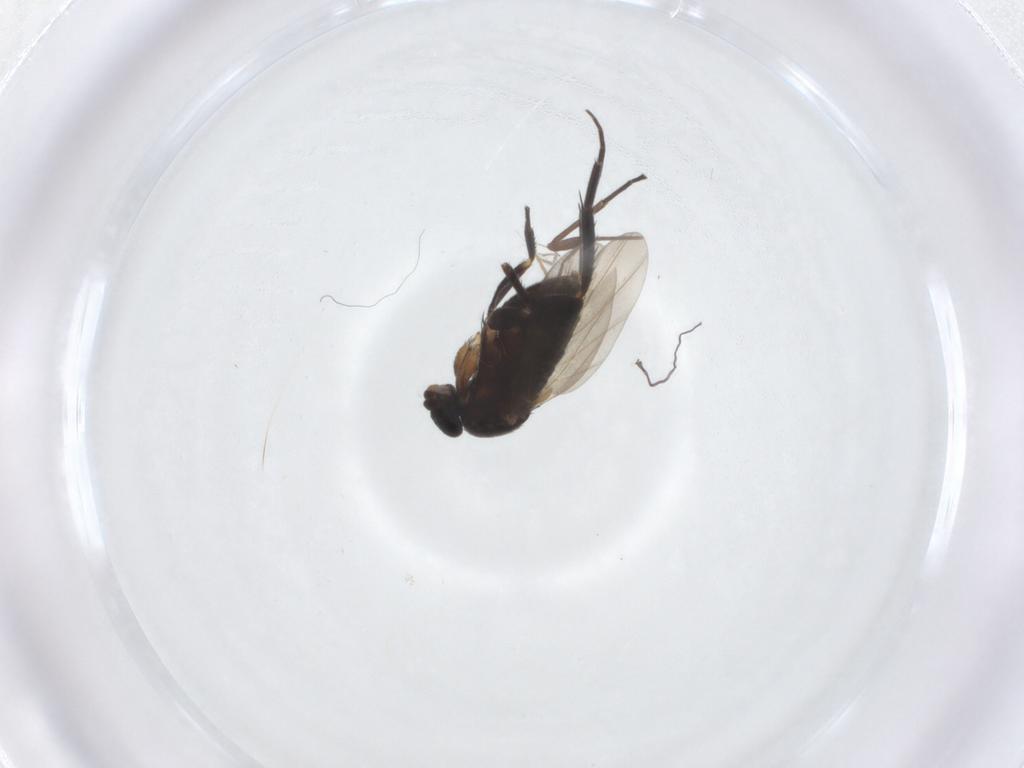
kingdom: Animalia
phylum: Arthropoda
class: Insecta
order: Diptera
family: Phoridae
